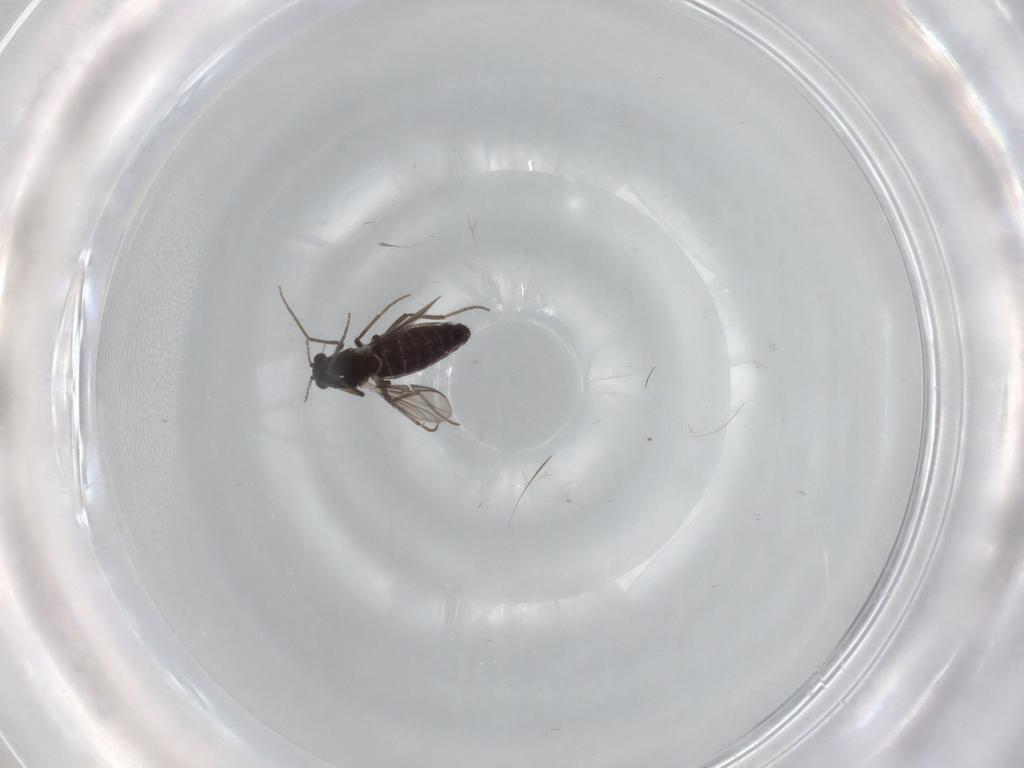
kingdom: Animalia
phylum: Arthropoda
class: Insecta
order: Diptera
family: Chironomidae
